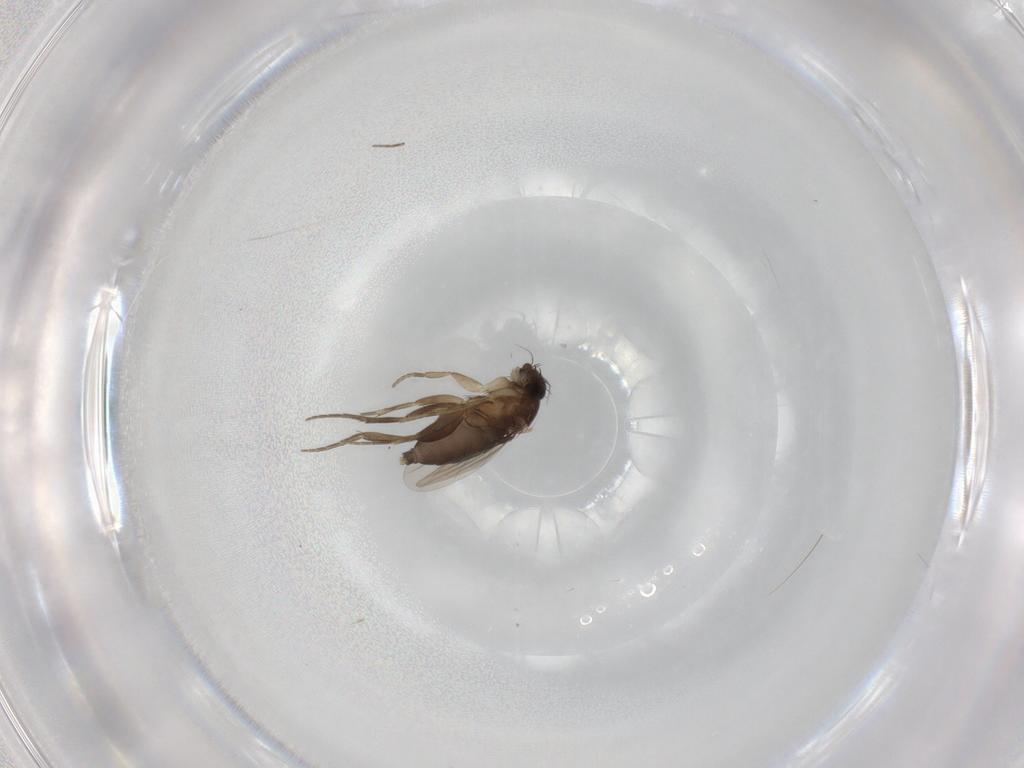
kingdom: Animalia
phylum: Arthropoda
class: Insecta
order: Diptera
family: Phoridae
